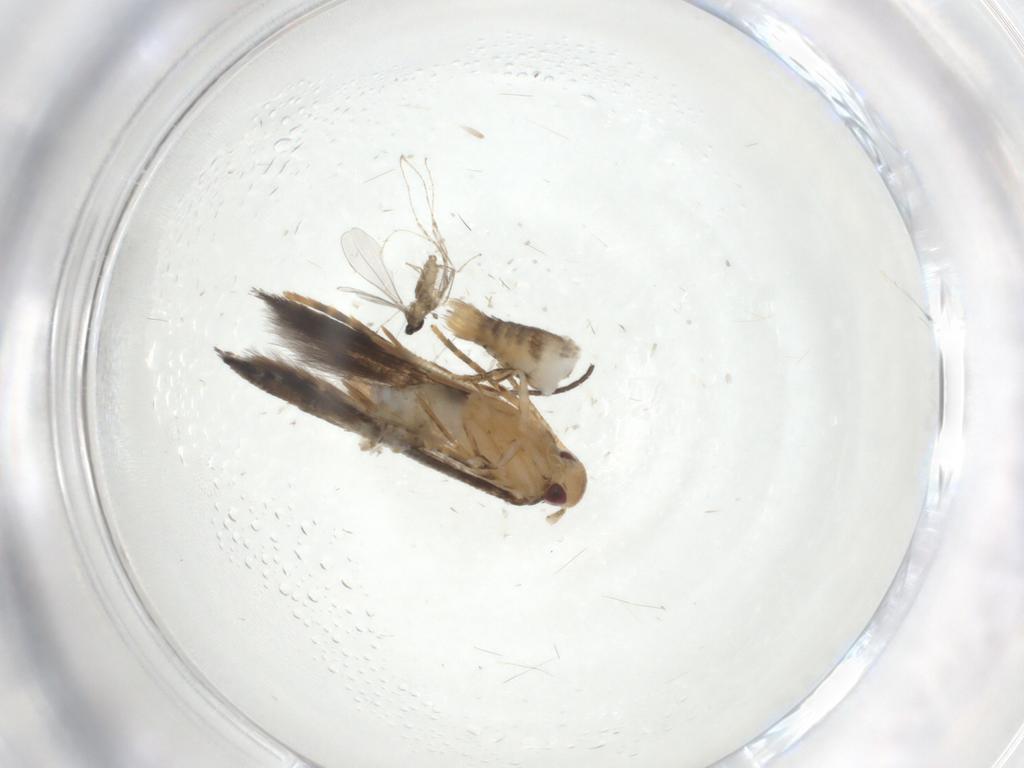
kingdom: Animalia
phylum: Arthropoda
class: Insecta
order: Lepidoptera
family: Momphidae
